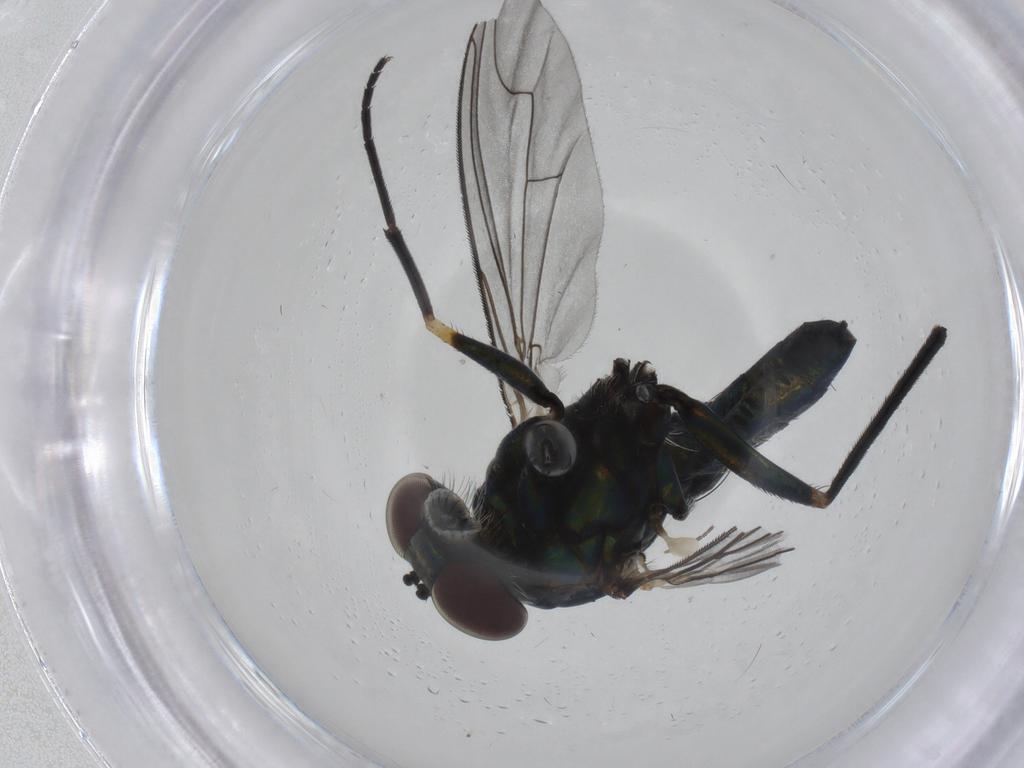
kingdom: Animalia
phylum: Arthropoda
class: Insecta
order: Diptera
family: Dolichopodidae
